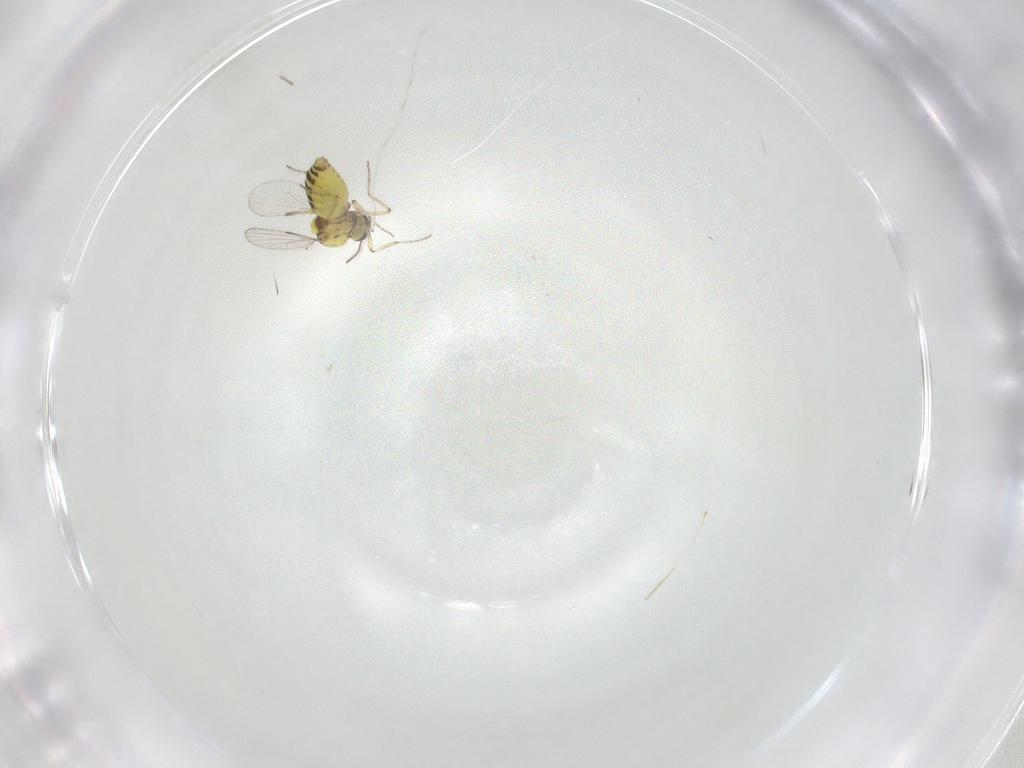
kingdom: Animalia
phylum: Arthropoda
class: Insecta
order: Diptera
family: Ceratopogonidae
